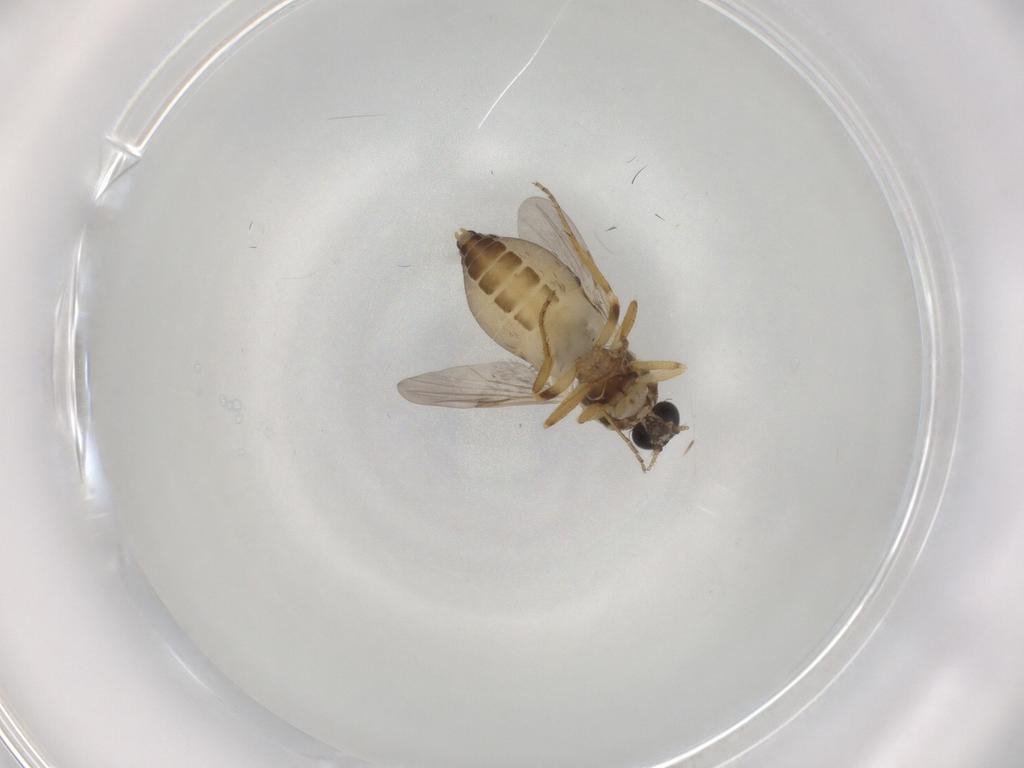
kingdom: Animalia
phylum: Arthropoda
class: Insecta
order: Diptera
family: Ceratopogonidae
